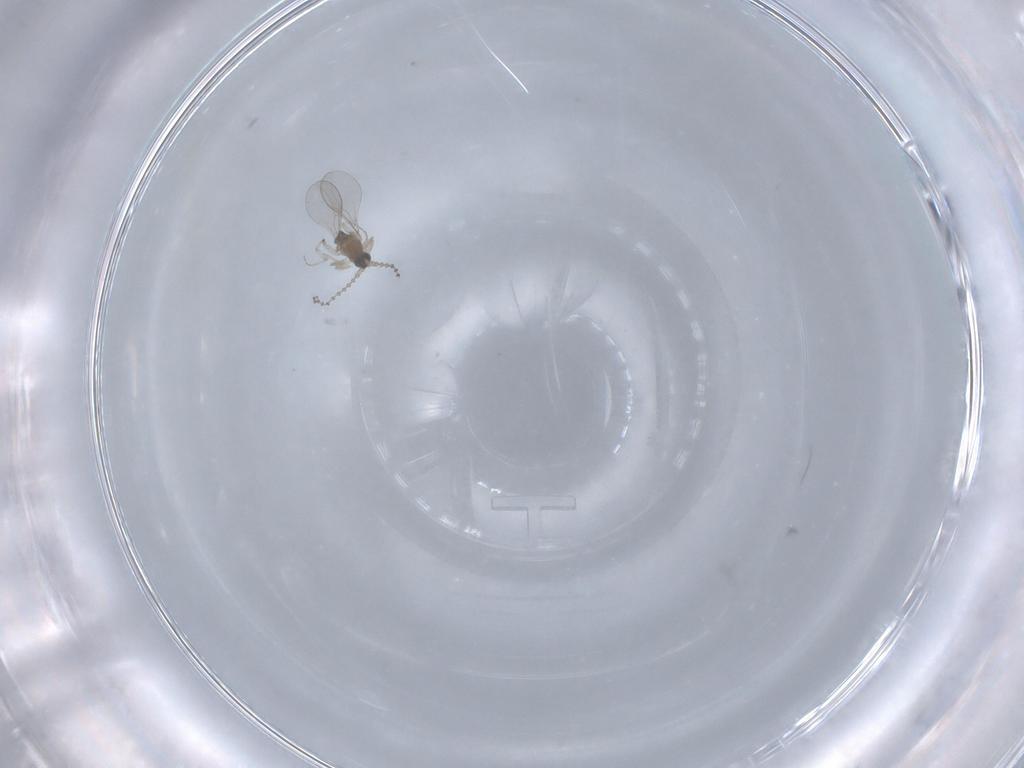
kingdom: Animalia
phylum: Arthropoda
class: Insecta
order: Diptera
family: Cecidomyiidae
